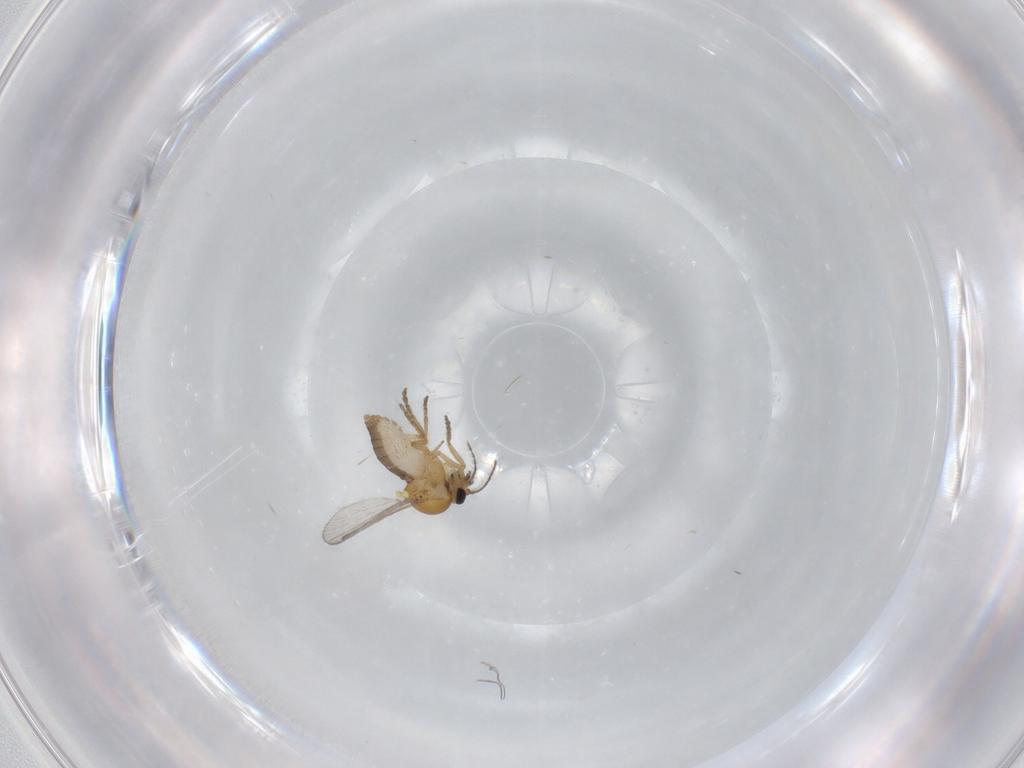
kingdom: Animalia
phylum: Arthropoda
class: Insecta
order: Diptera
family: Ceratopogonidae
